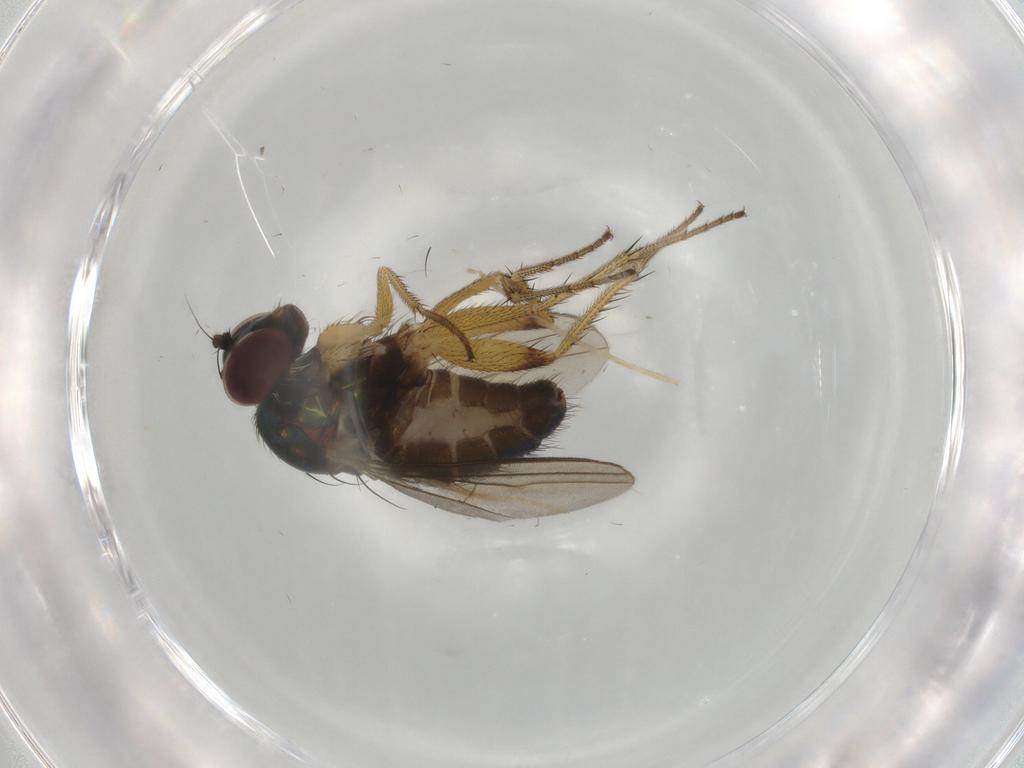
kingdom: Animalia
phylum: Arthropoda
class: Insecta
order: Diptera
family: Dolichopodidae
